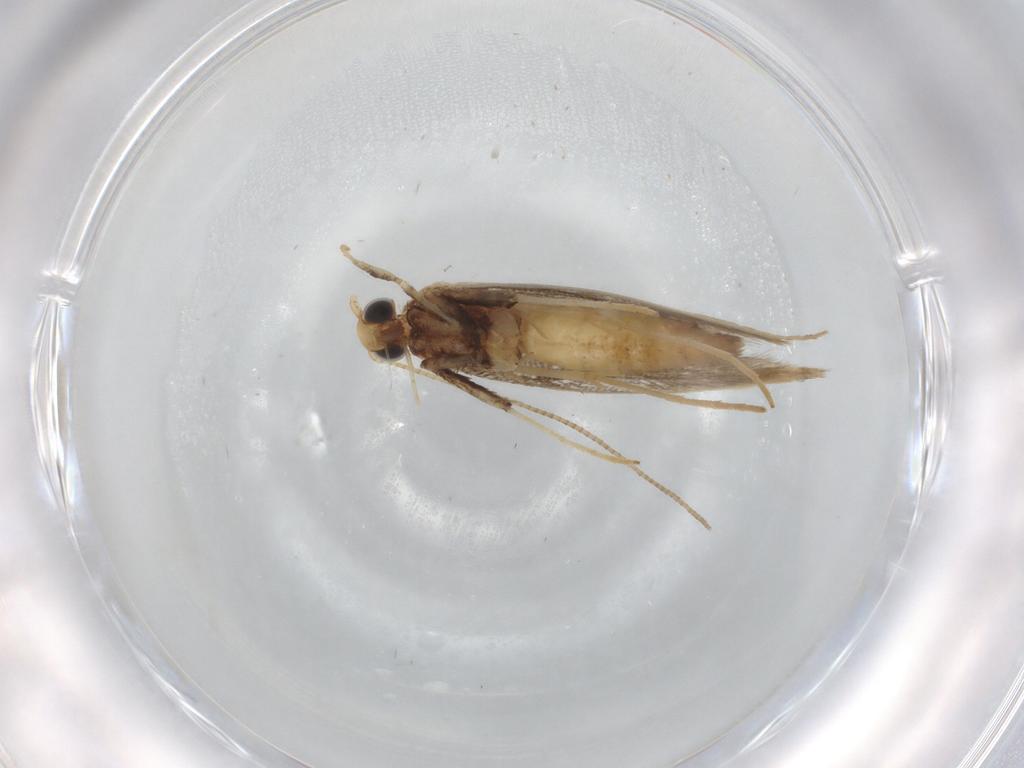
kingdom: Animalia
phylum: Arthropoda
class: Insecta
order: Lepidoptera
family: Gracillariidae
